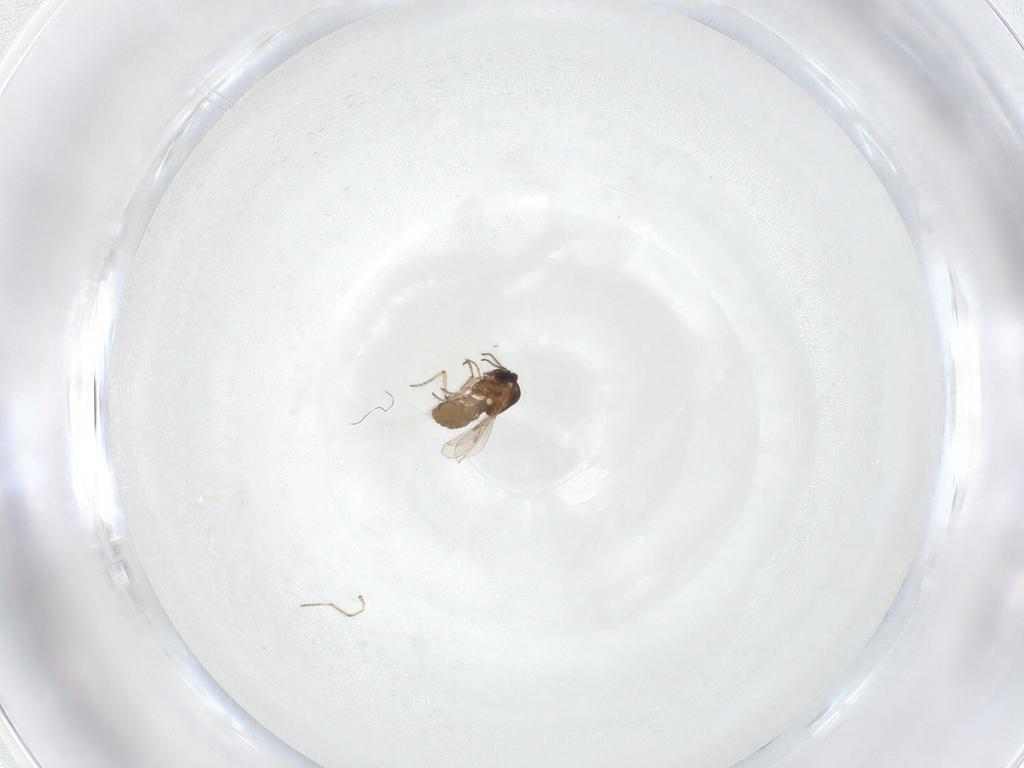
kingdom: Animalia
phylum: Arthropoda
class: Insecta
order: Diptera
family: Ceratopogonidae
